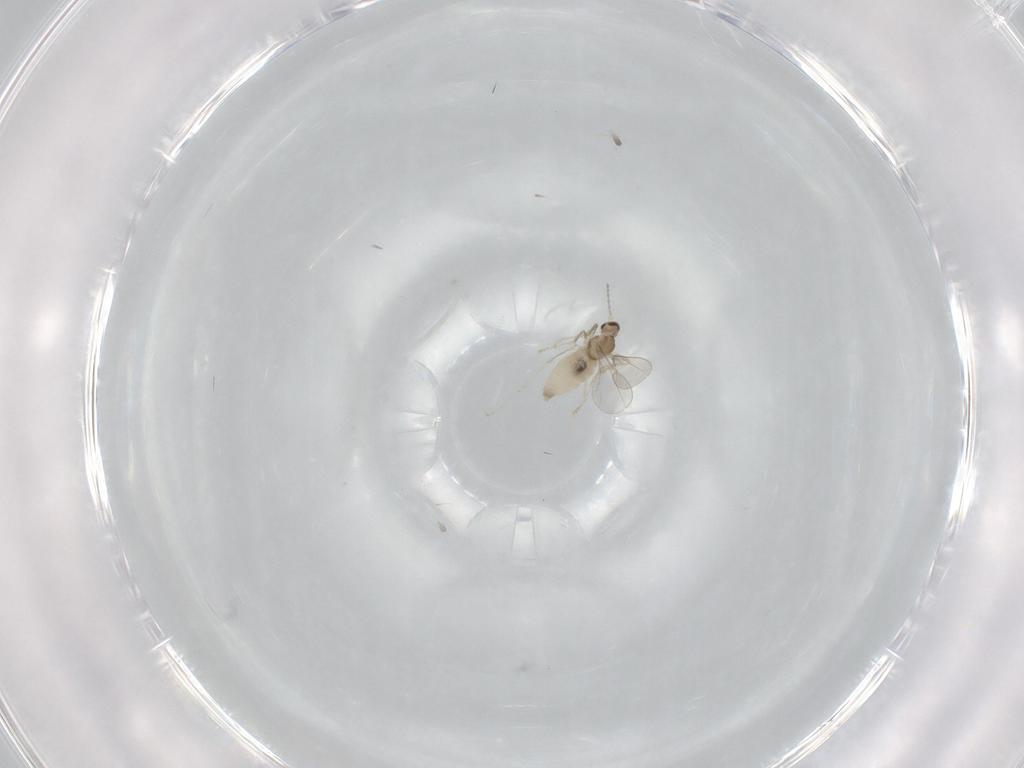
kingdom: Animalia
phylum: Arthropoda
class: Insecta
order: Diptera
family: Cecidomyiidae
